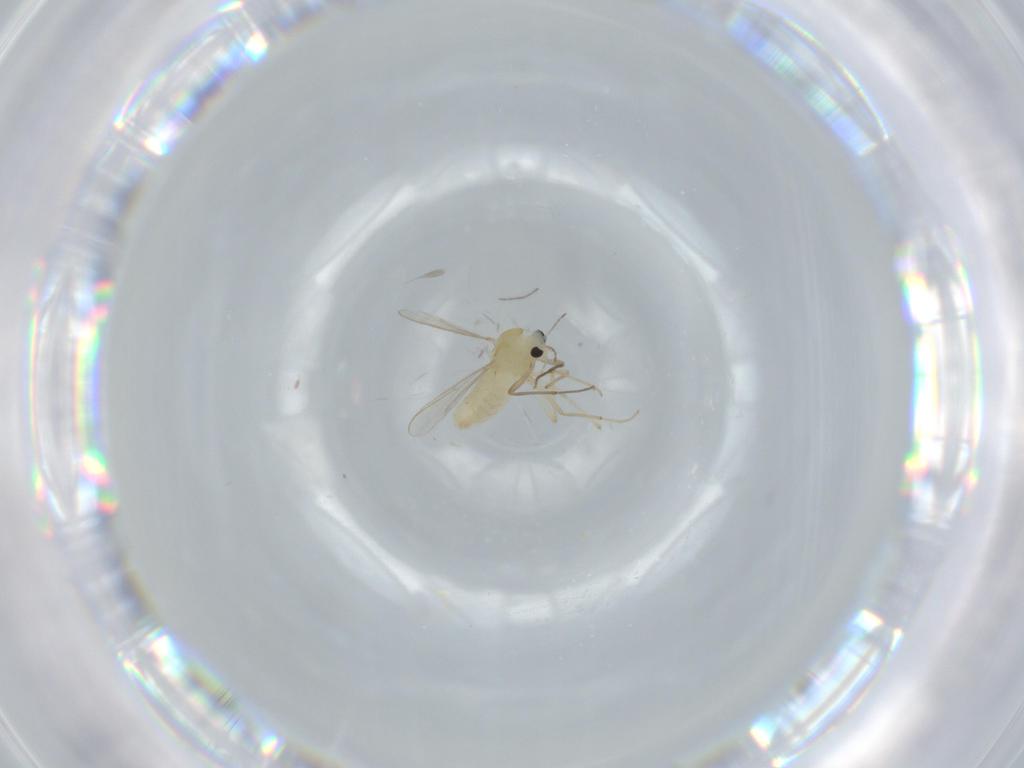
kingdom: Animalia
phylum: Arthropoda
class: Insecta
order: Diptera
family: Chironomidae
